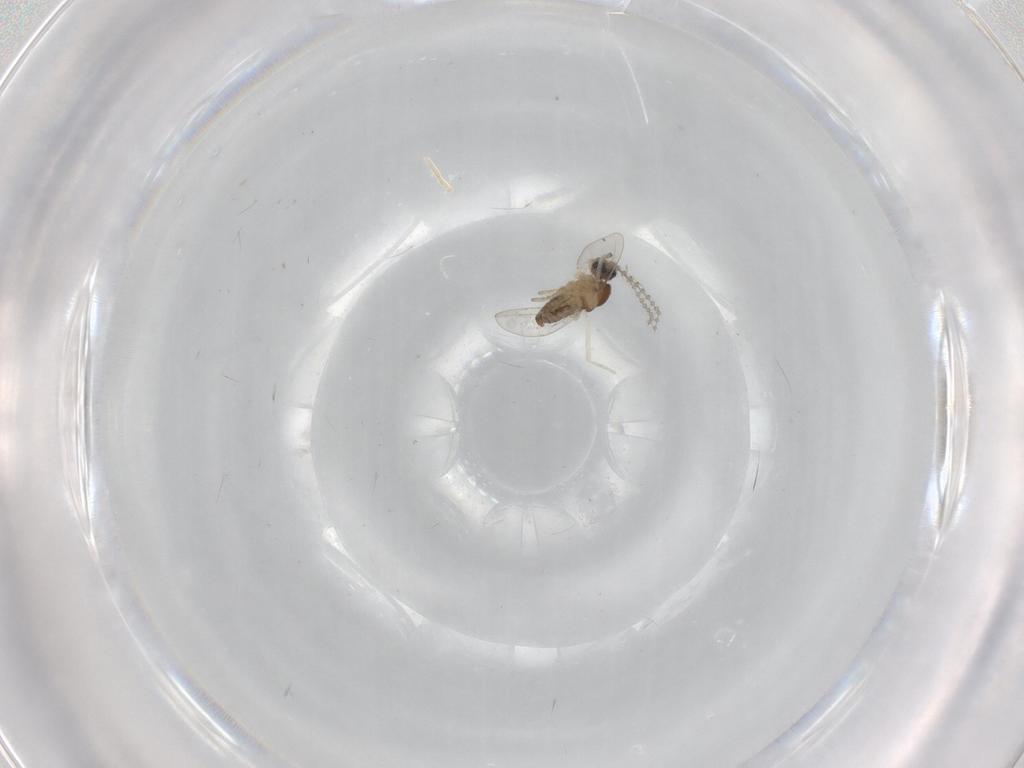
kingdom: Animalia
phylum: Arthropoda
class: Insecta
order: Diptera
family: Cecidomyiidae
